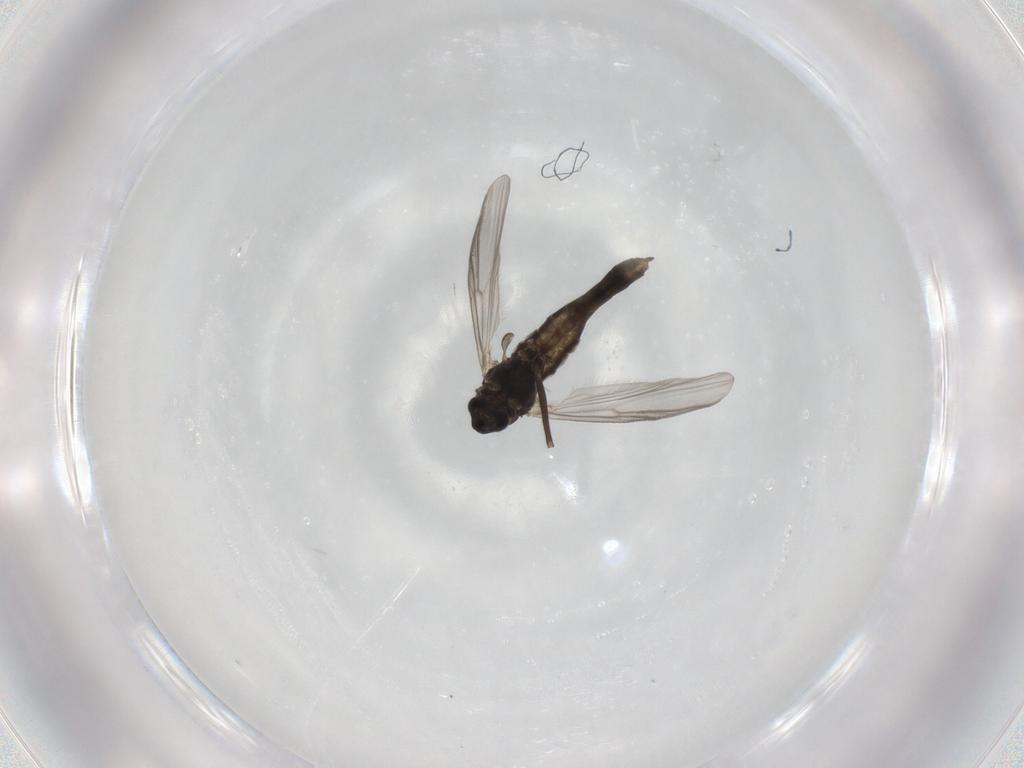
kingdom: Animalia
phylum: Arthropoda
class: Insecta
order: Diptera
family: Chironomidae
